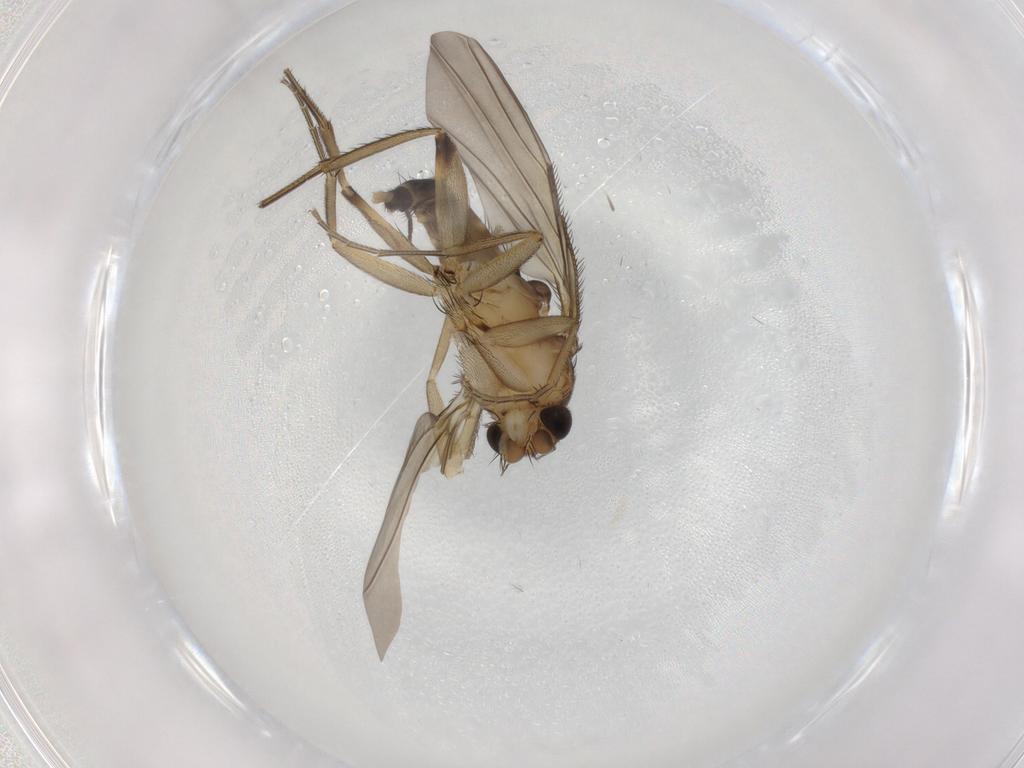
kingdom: Animalia
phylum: Arthropoda
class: Insecta
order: Diptera
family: Phoridae
